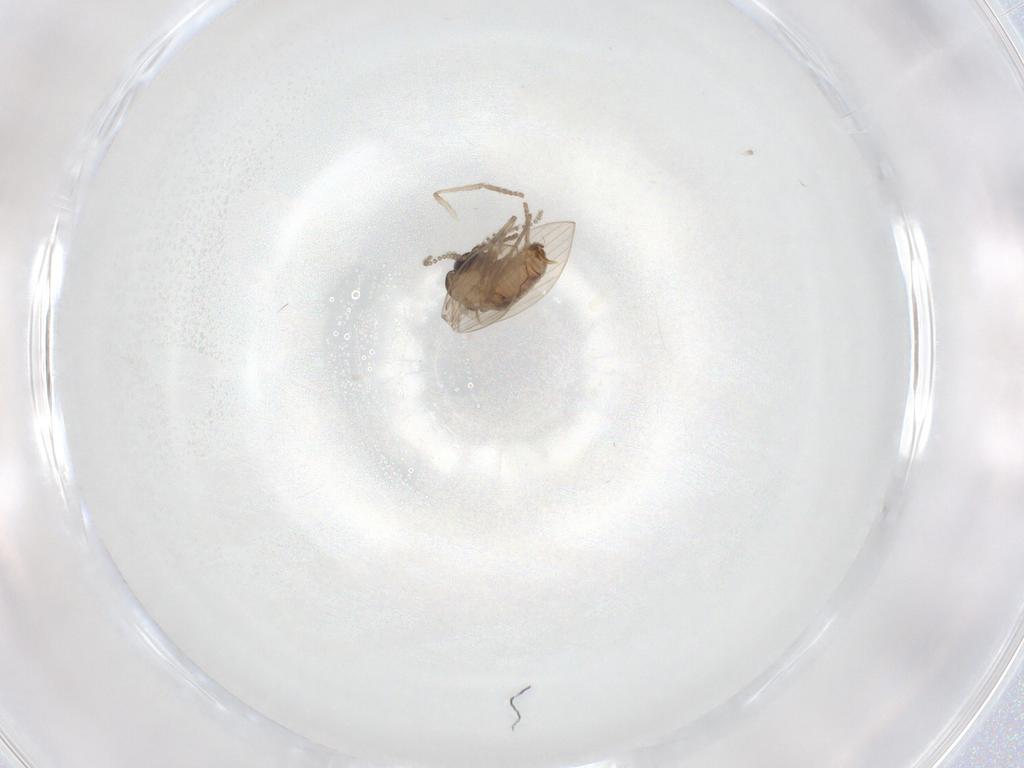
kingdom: Animalia
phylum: Arthropoda
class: Insecta
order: Diptera
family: Psychodidae
